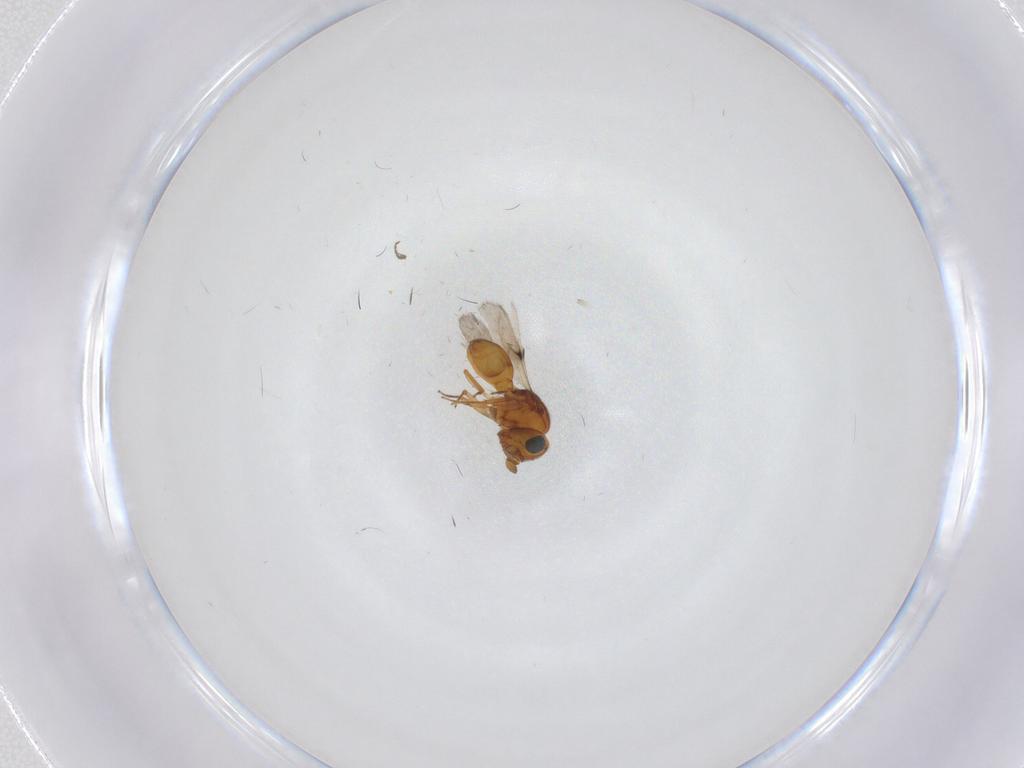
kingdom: Animalia
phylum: Arthropoda
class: Insecta
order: Hymenoptera
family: Scelionidae
